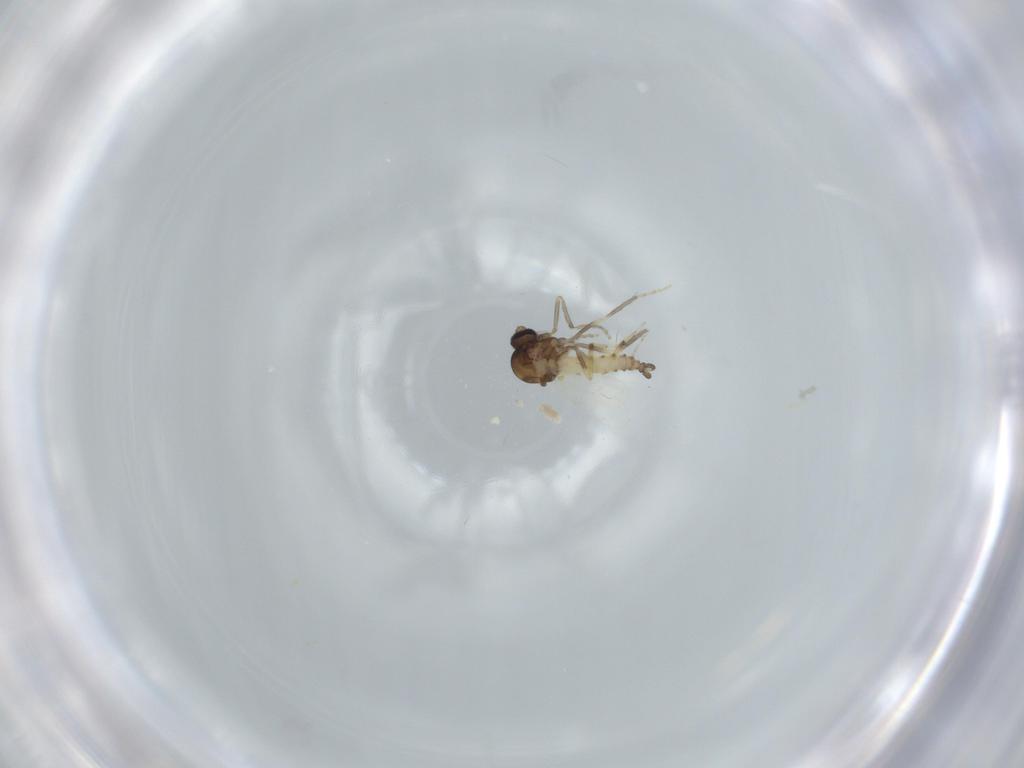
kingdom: Animalia
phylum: Arthropoda
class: Insecta
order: Diptera
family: Ceratopogonidae
